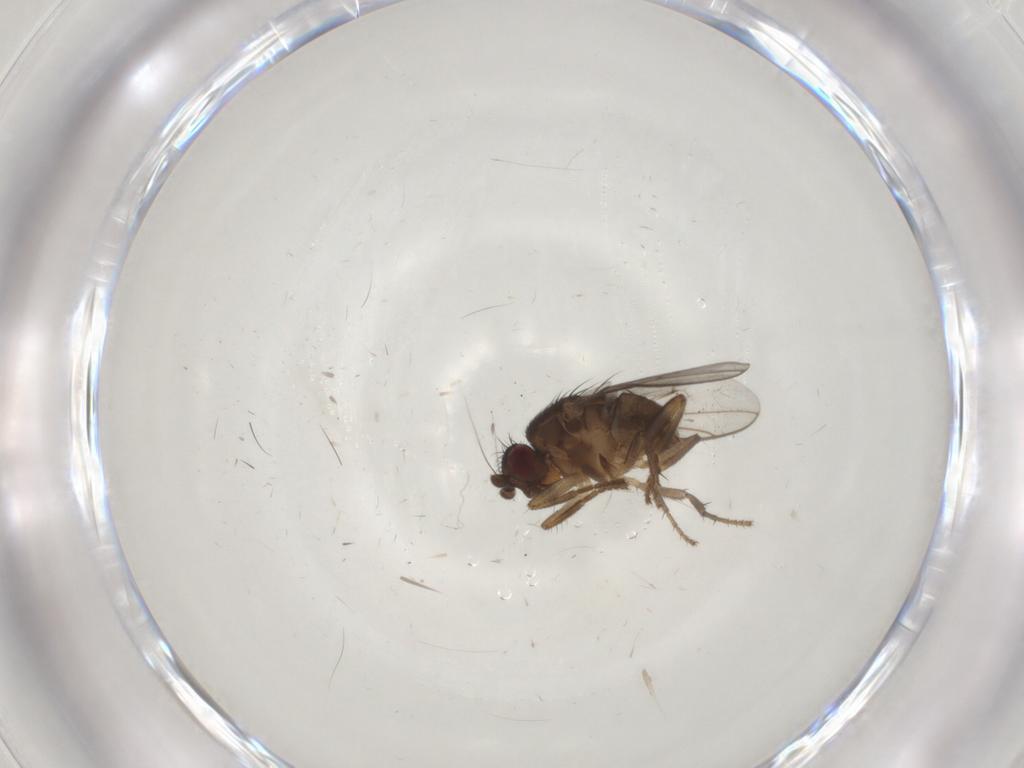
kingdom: Animalia
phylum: Arthropoda
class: Insecta
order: Diptera
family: Sphaeroceridae
